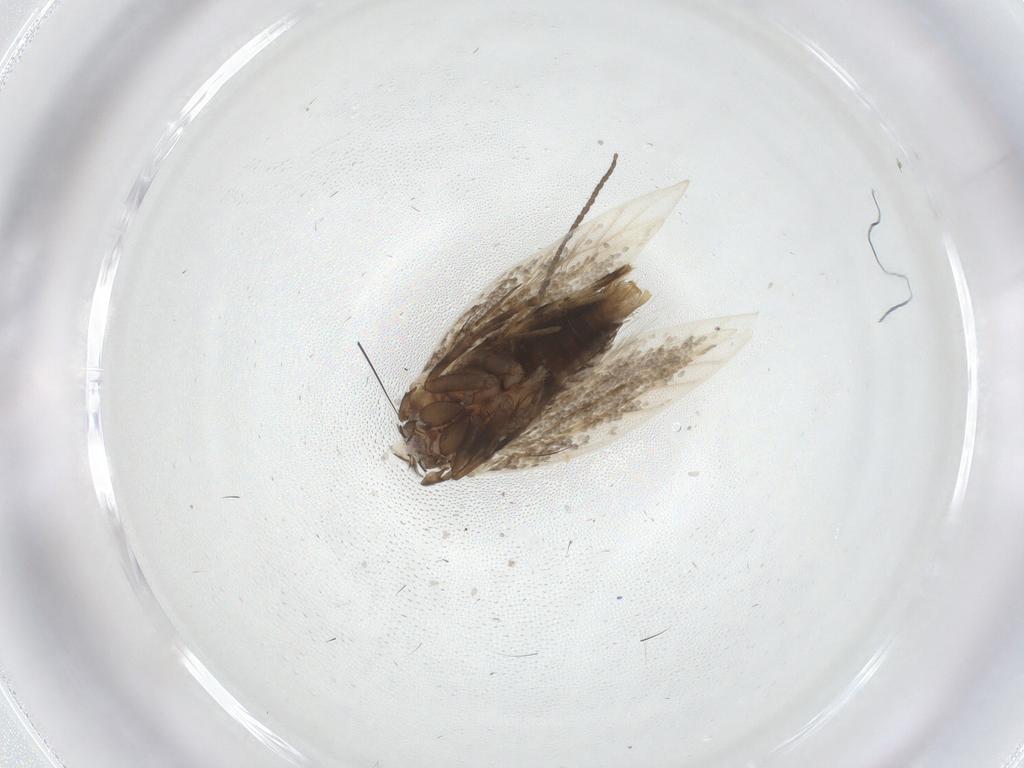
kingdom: Animalia
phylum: Arthropoda
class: Insecta
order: Lepidoptera
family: Gelechiidae
